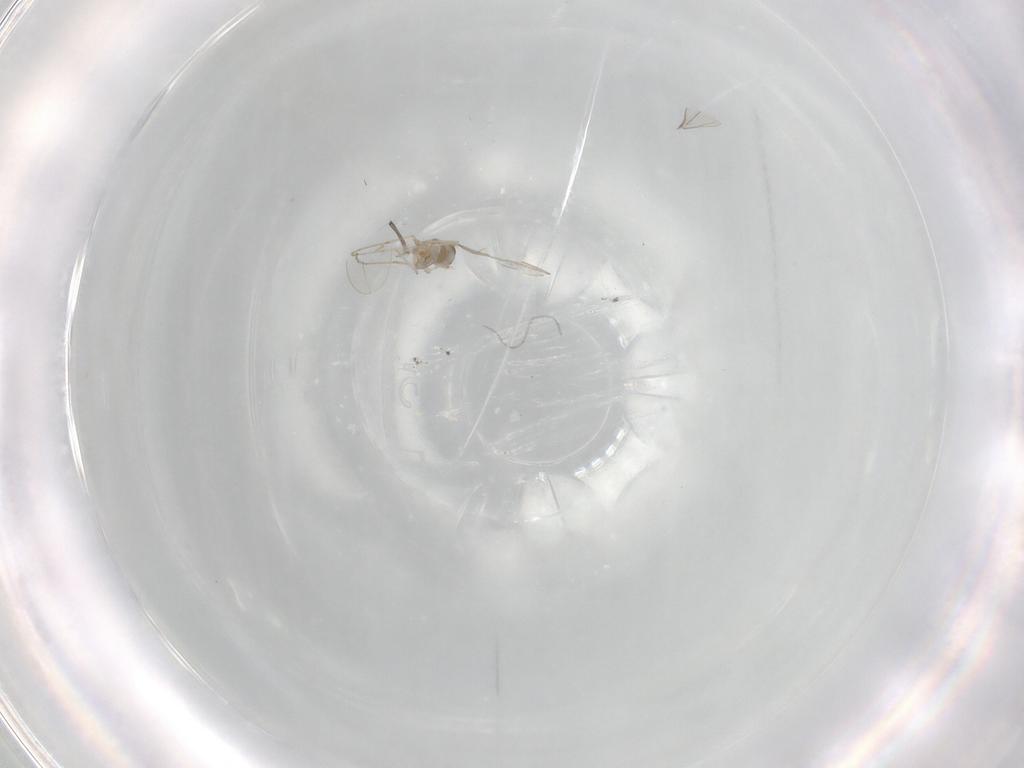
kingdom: Animalia
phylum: Arthropoda
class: Insecta
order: Diptera
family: Cecidomyiidae
